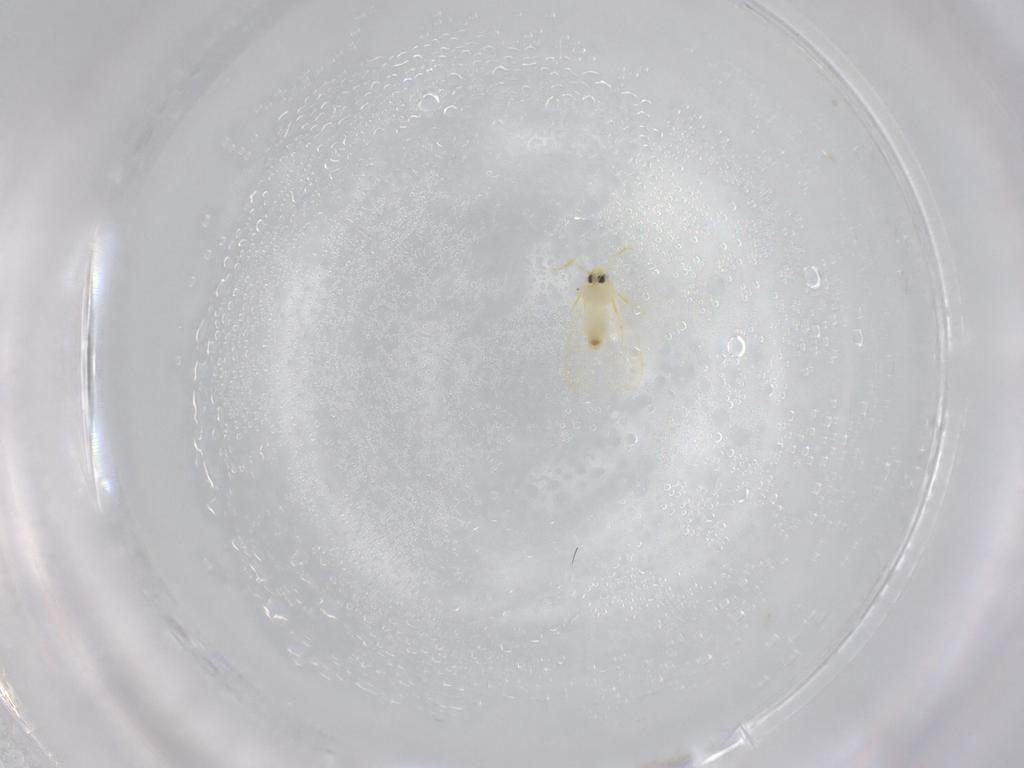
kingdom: Animalia
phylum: Arthropoda
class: Insecta
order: Hemiptera
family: Aleyrodidae
